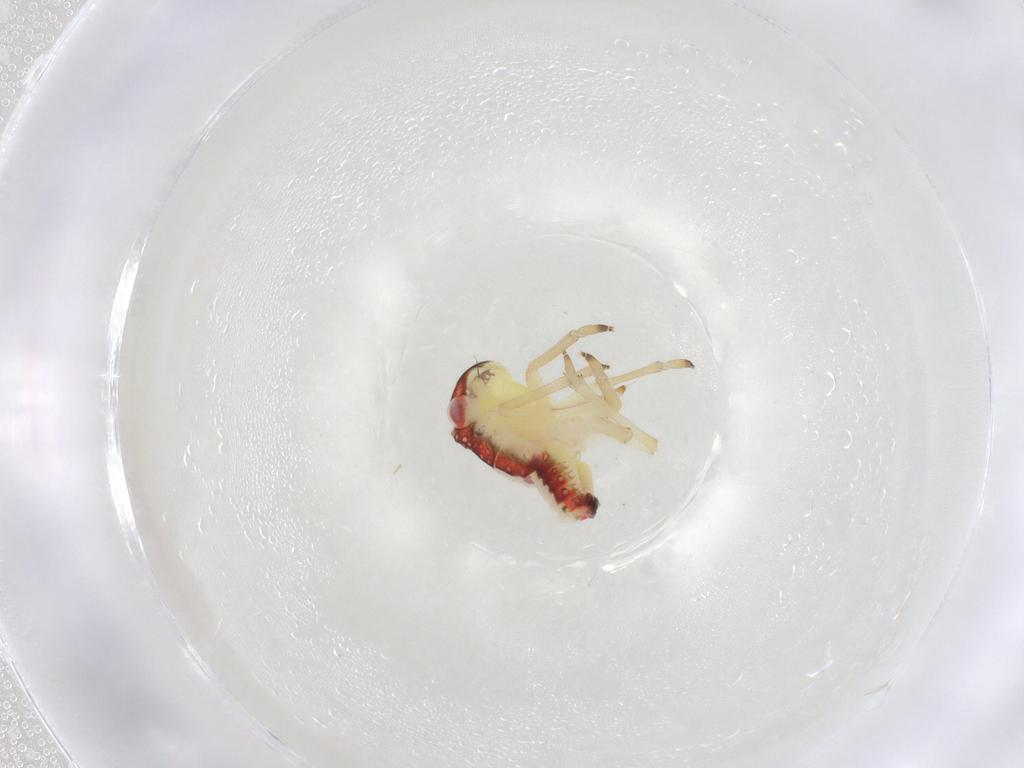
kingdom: Animalia
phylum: Arthropoda
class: Insecta
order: Hemiptera
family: Tropiduchidae
